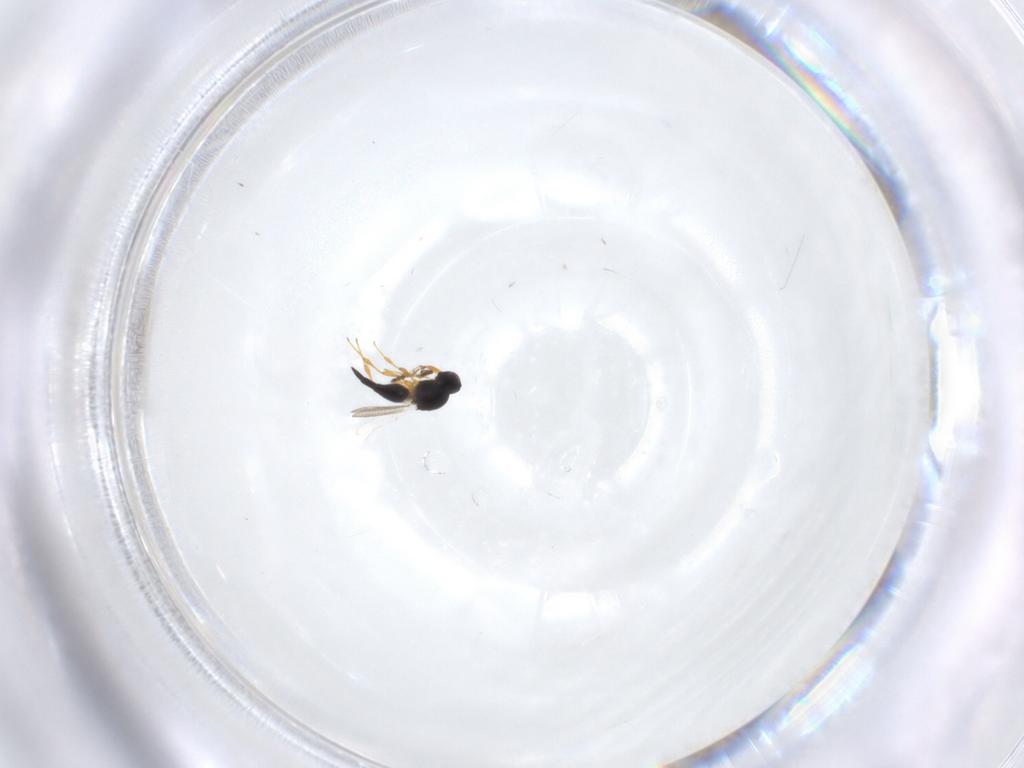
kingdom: Animalia
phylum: Arthropoda
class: Insecta
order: Hymenoptera
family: Platygastridae
